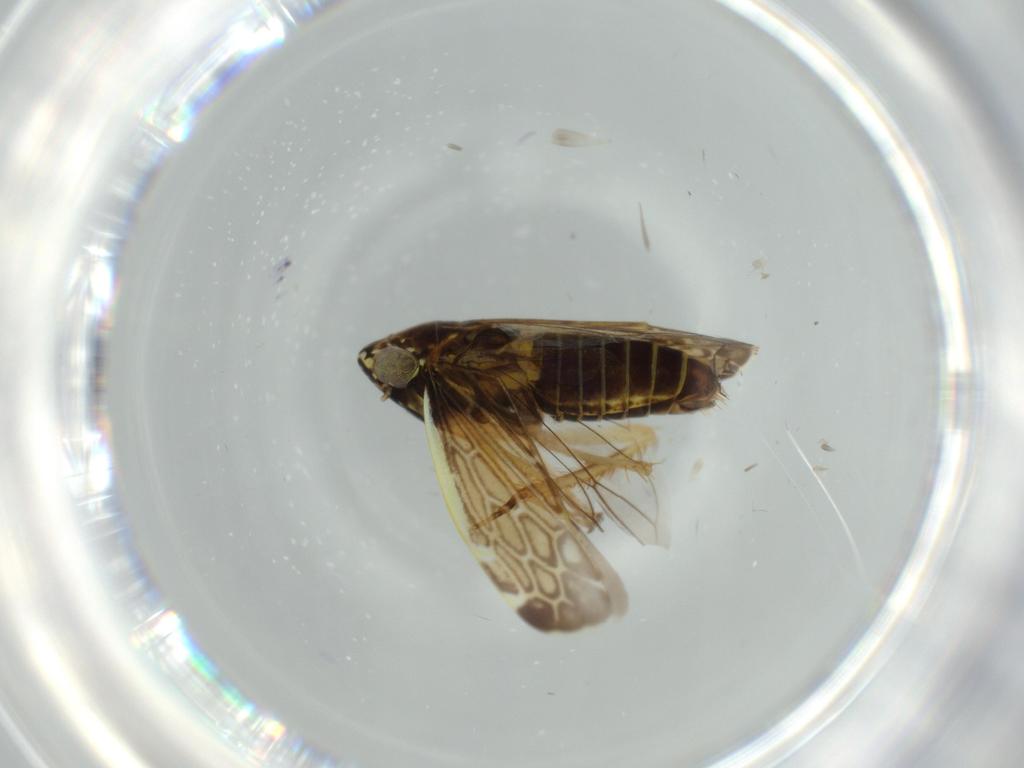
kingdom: Animalia
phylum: Arthropoda
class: Insecta
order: Hemiptera
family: Cicadellidae
